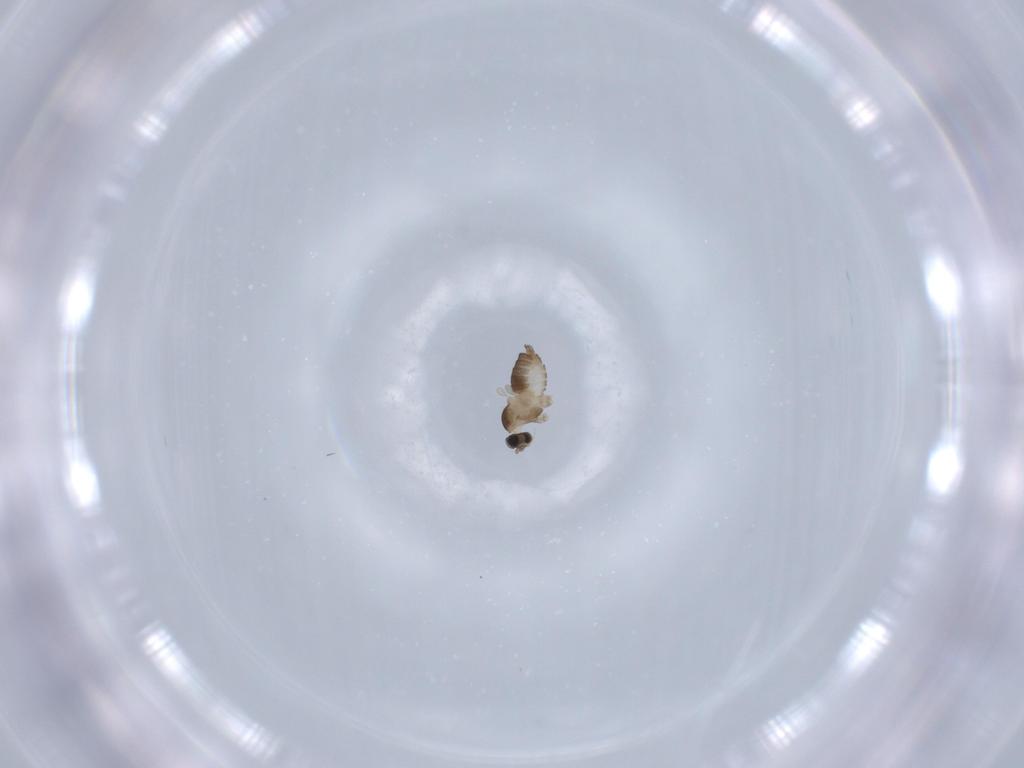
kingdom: Animalia
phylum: Arthropoda
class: Insecta
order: Diptera
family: Cecidomyiidae
